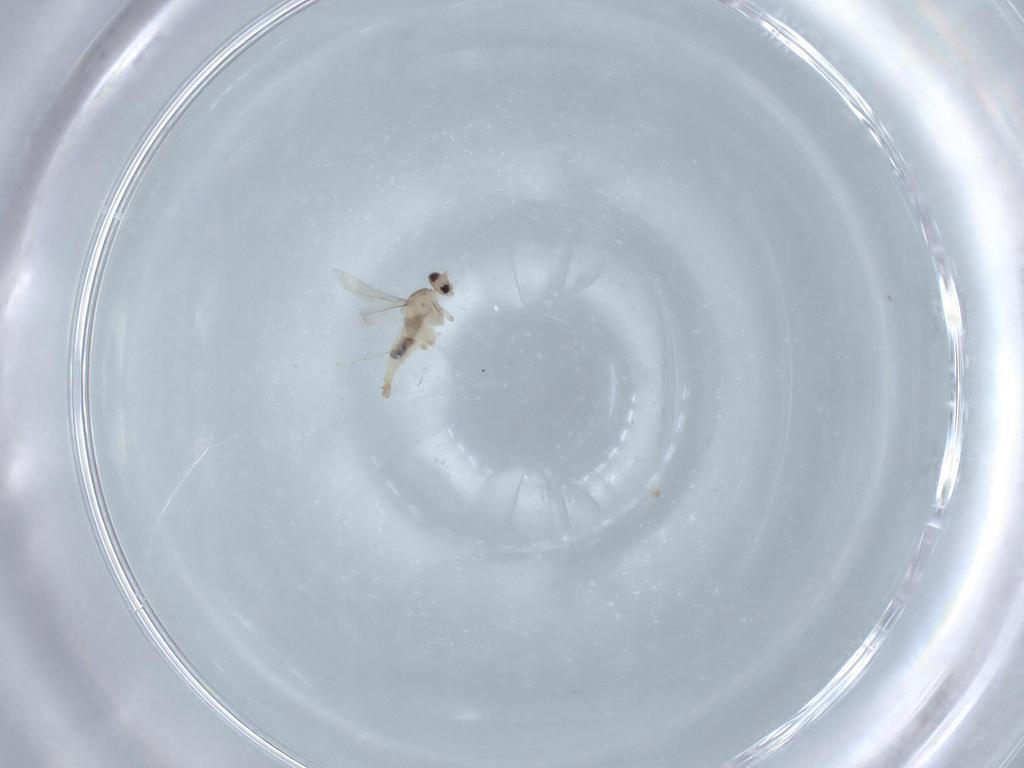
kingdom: Animalia
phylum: Arthropoda
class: Insecta
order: Diptera
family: Cecidomyiidae
